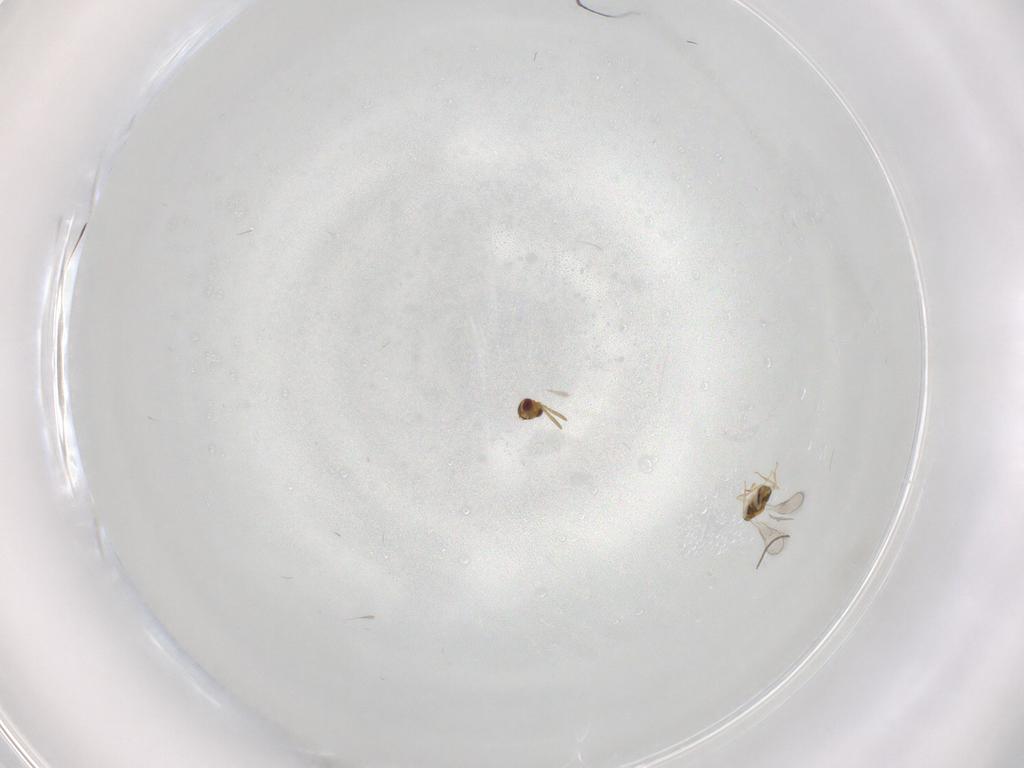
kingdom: Animalia
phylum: Arthropoda
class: Insecta
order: Hymenoptera
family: Aphelinidae
